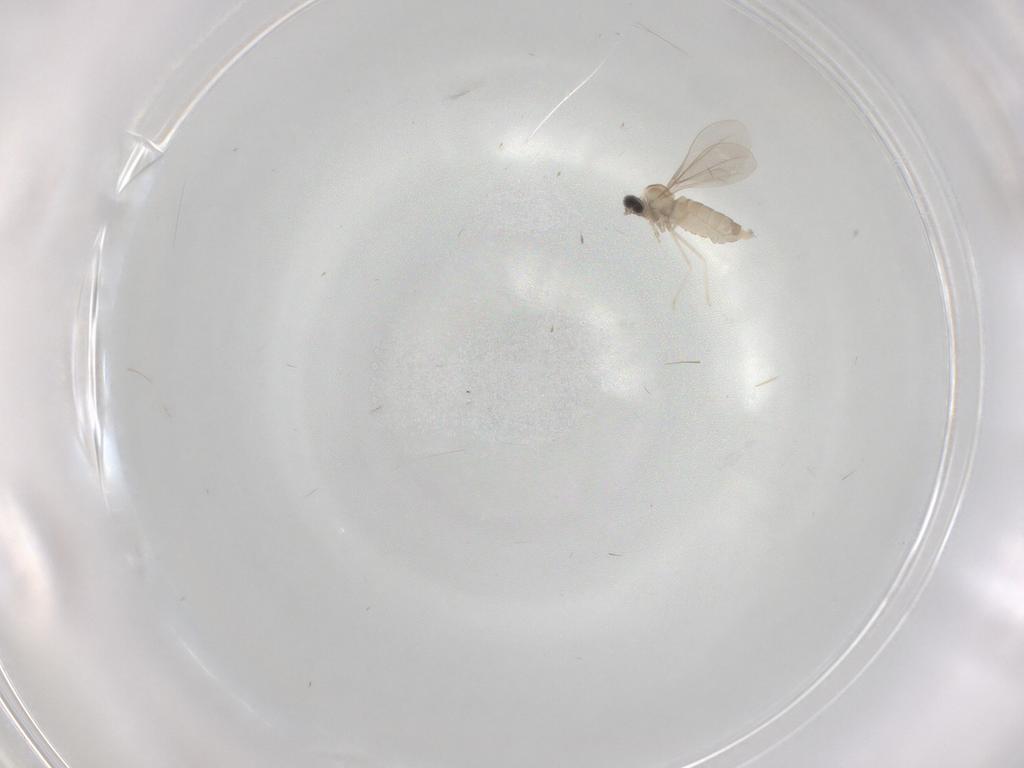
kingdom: Animalia
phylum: Arthropoda
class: Insecta
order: Diptera
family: Cecidomyiidae
